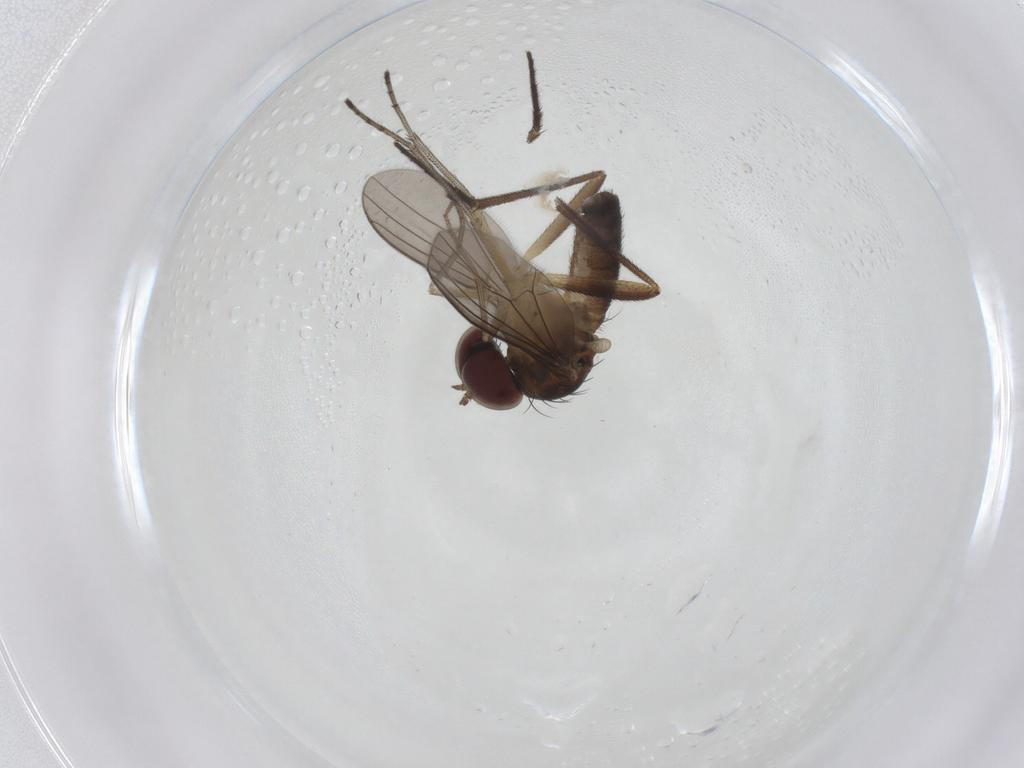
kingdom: Animalia
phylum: Arthropoda
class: Insecta
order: Diptera
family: Dolichopodidae
